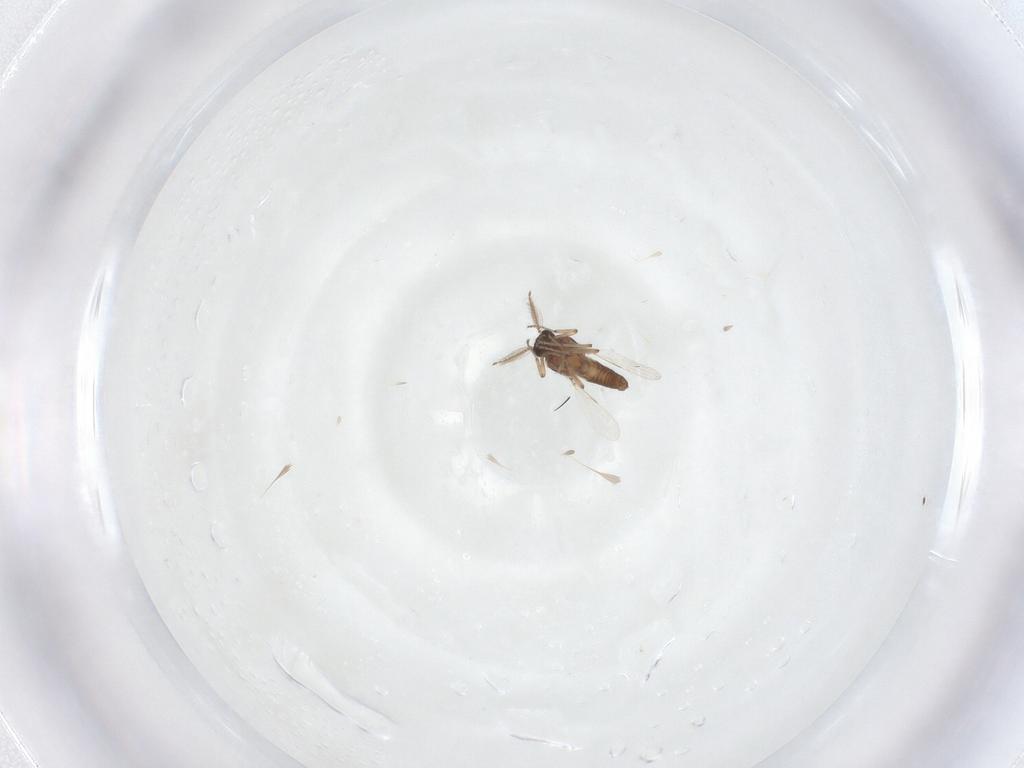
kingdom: Animalia
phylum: Arthropoda
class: Insecta
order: Diptera
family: Ceratopogonidae
